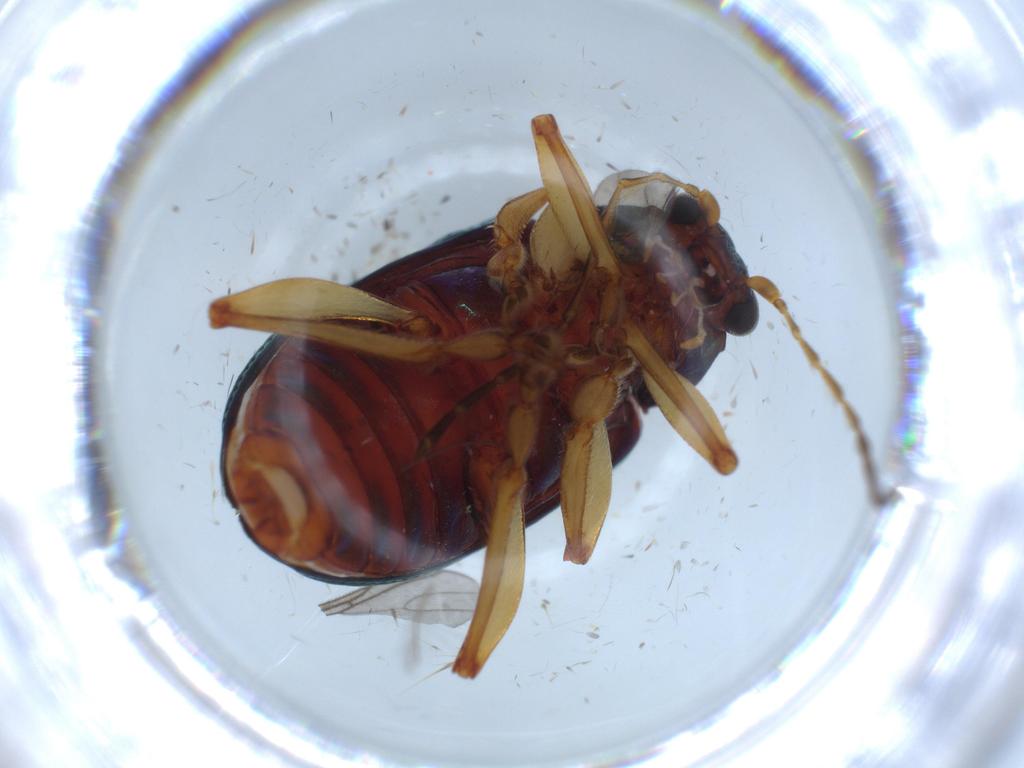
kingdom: Animalia
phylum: Arthropoda
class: Insecta
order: Coleoptera
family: Chrysomelidae
